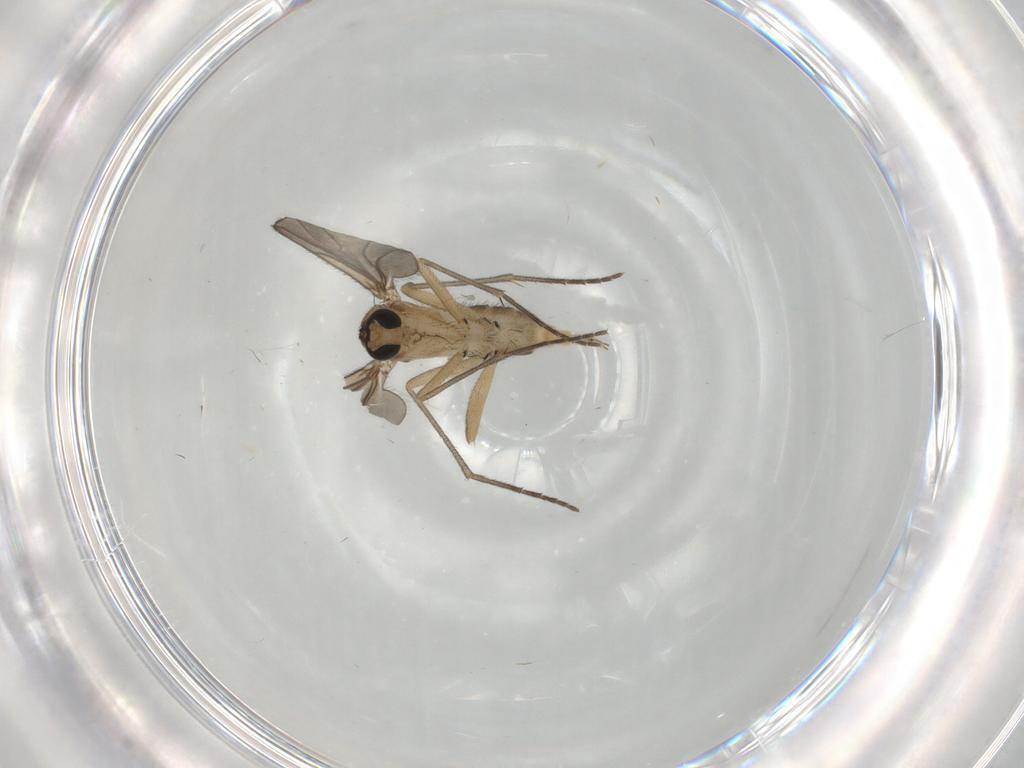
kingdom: Animalia
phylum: Arthropoda
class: Insecta
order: Diptera
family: Sciaridae
